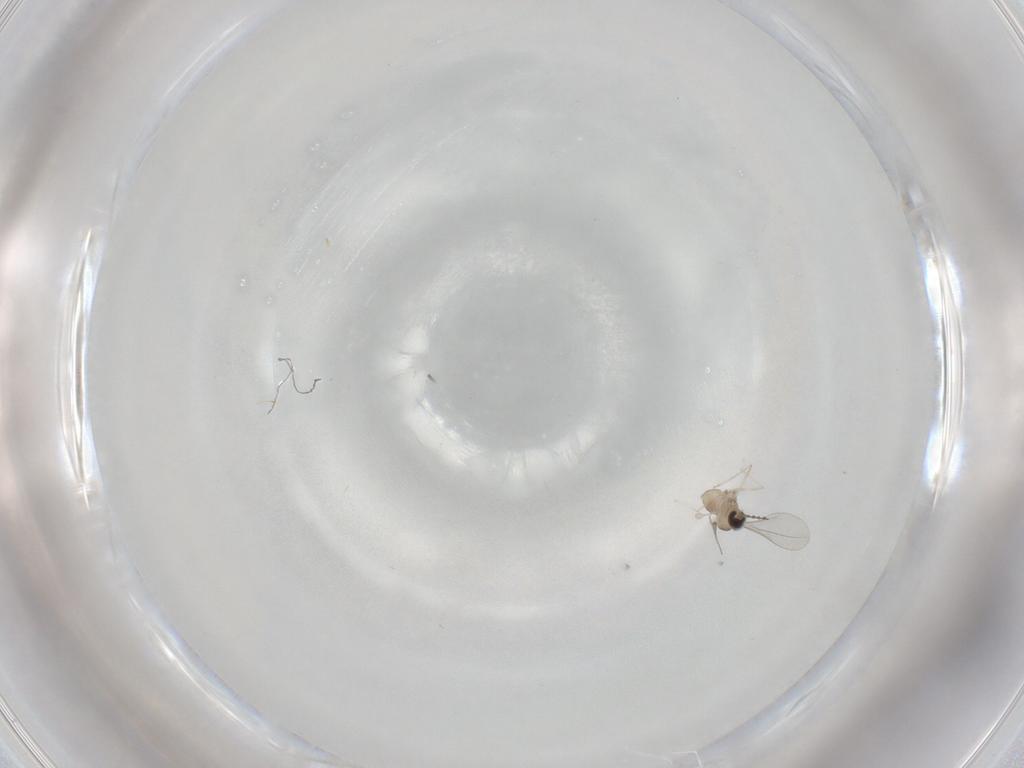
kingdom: Animalia
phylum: Arthropoda
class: Insecta
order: Diptera
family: Cecidomyiidae
